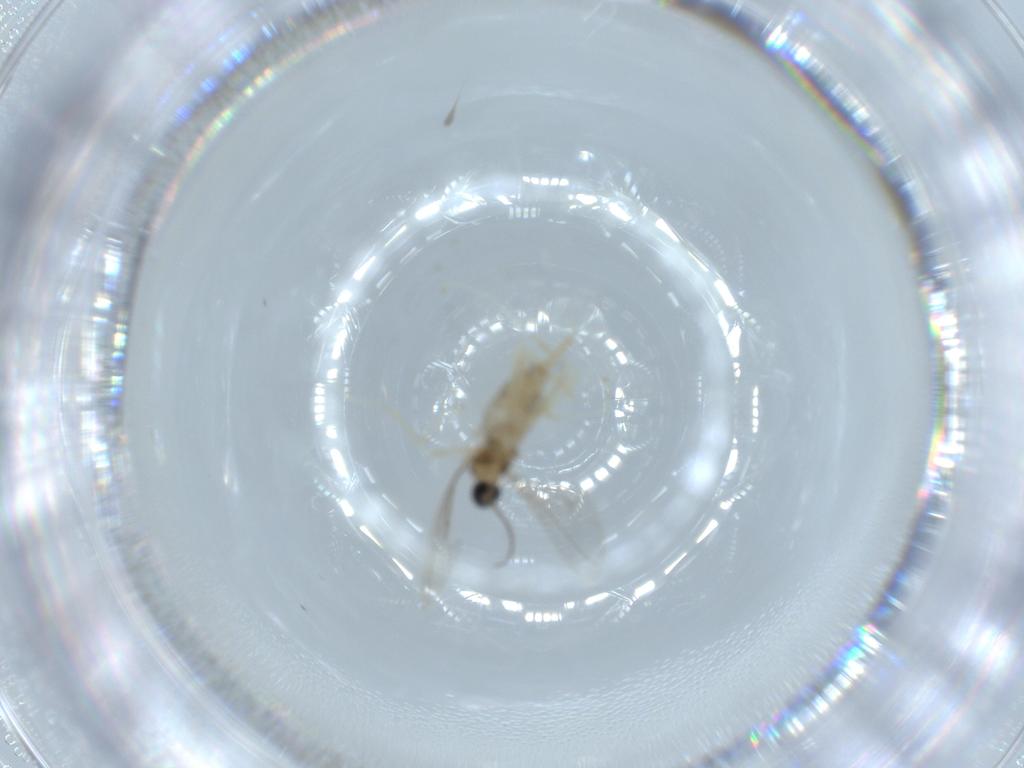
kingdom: Animalia
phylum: Arthropoda
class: Insecta
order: Diptera
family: Cecidomyiidae
